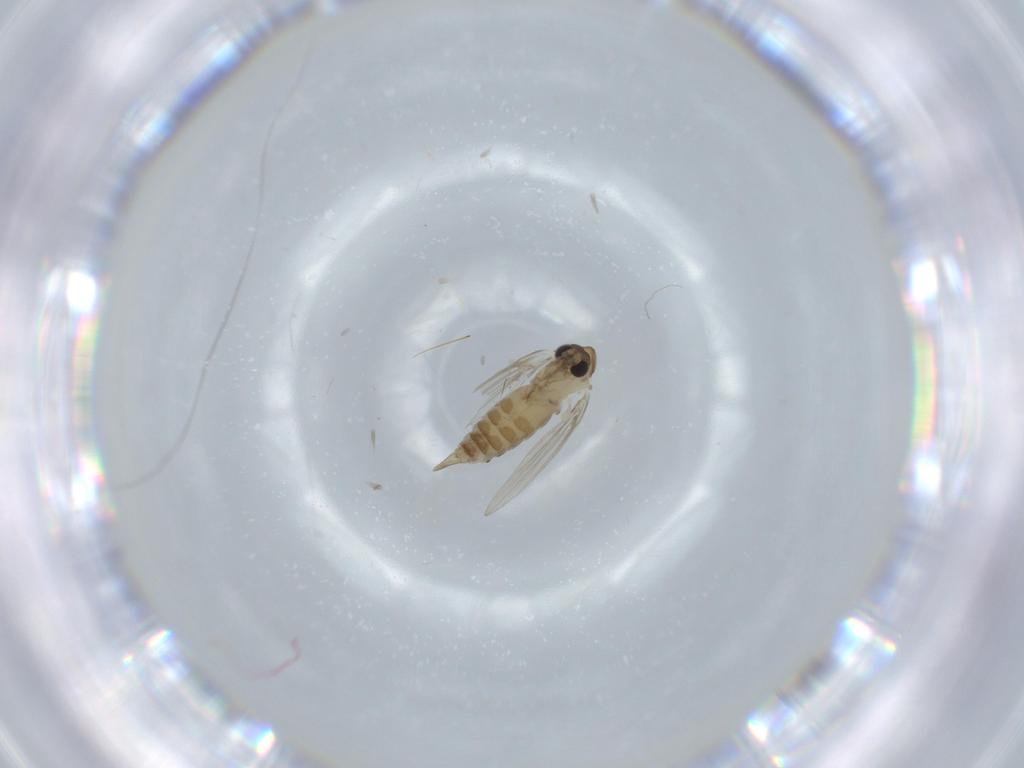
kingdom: Animalia
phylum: Arthropoda
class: Insecta
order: Diptera
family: Psychodidae
